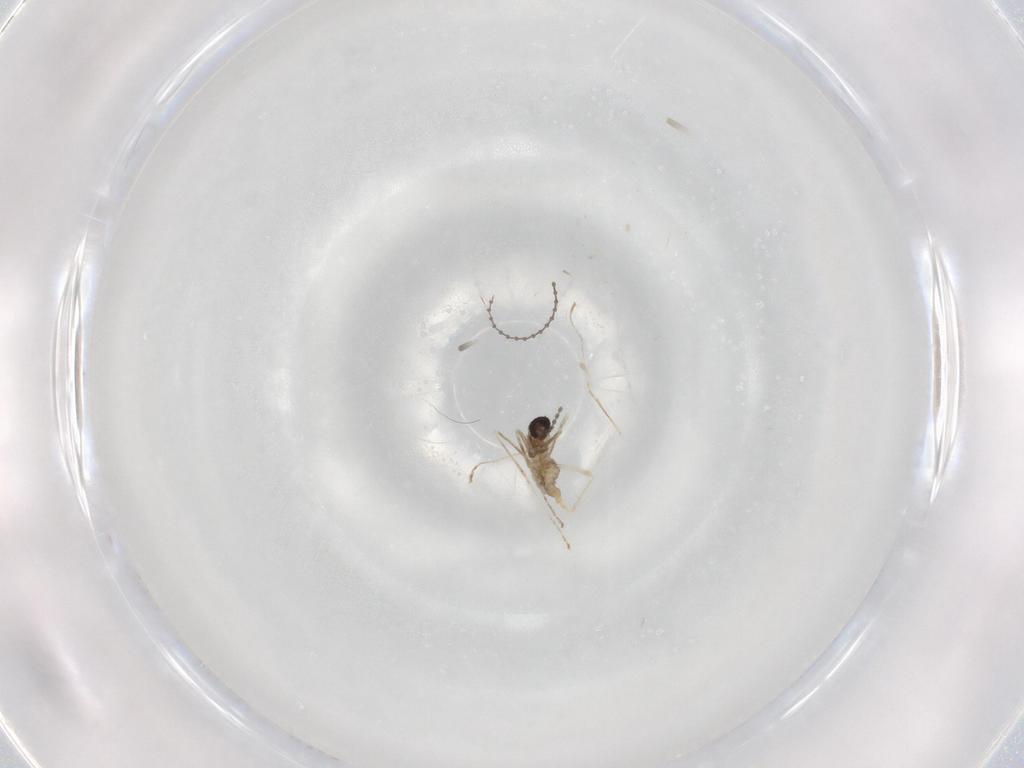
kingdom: Animalia
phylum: Arthropoda
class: Insecta
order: Diptera
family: Cecidomyiidae
